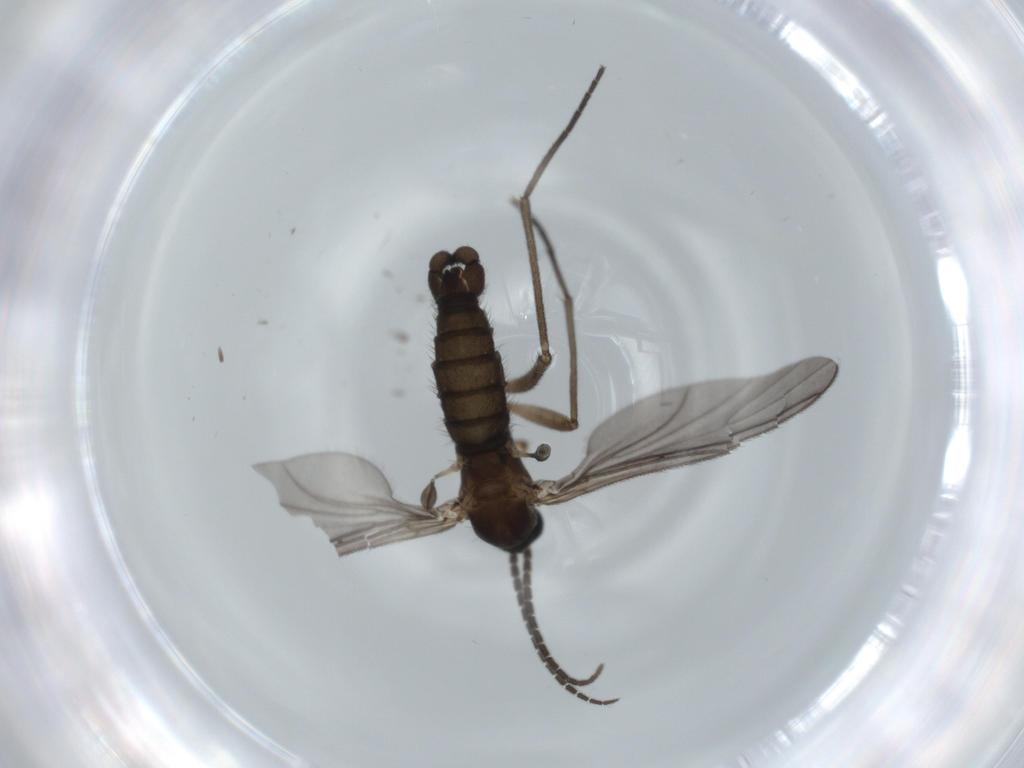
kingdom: Animalia
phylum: Arthropoda
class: Insecta
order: Diptera
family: Sciaridae
